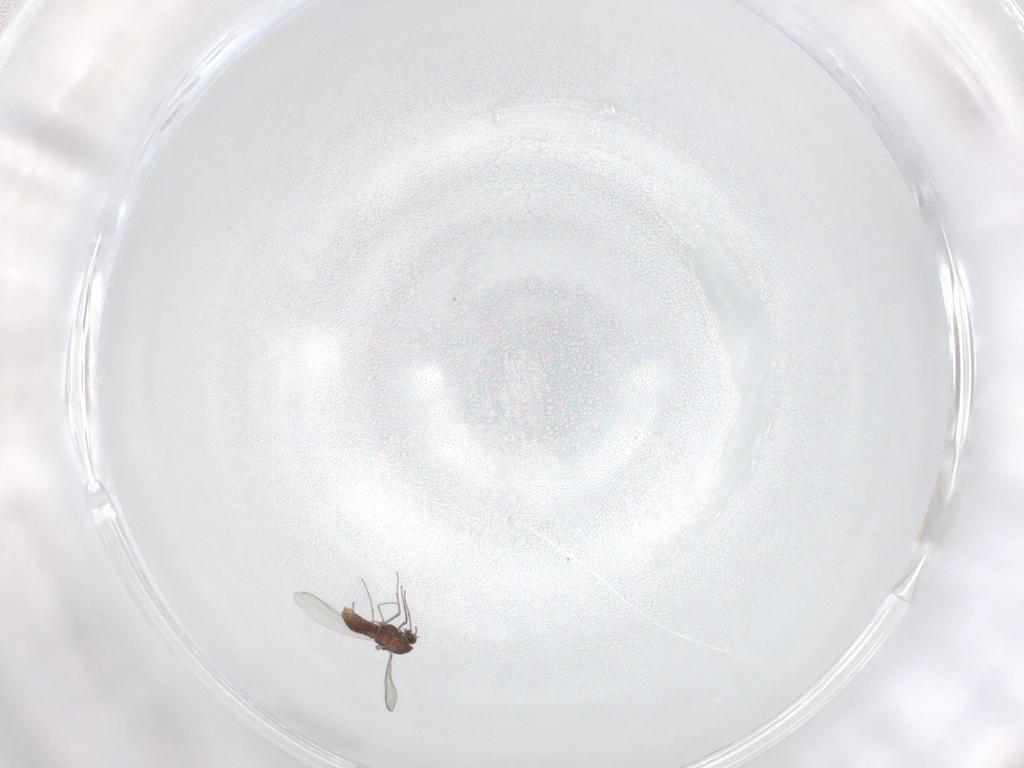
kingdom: Animalia
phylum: Arthropoda
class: Insecta
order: Diptera
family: Chironomidae
